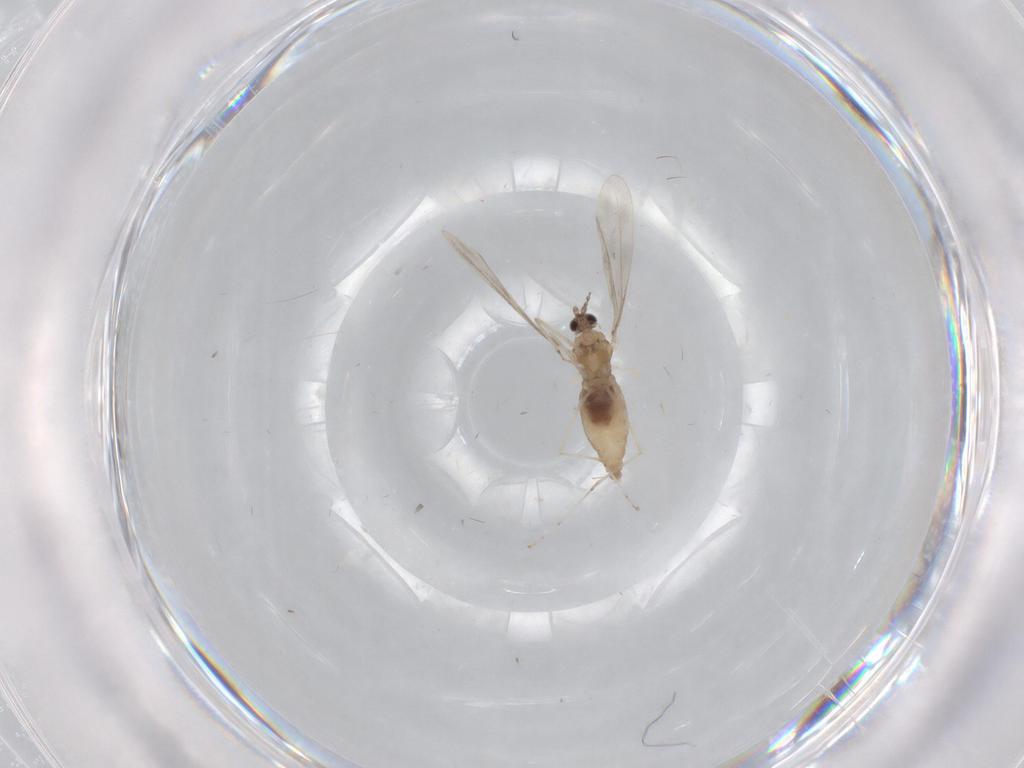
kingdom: Animalia
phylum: Arthropoda
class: Insecta
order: Diptera
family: Cecidomyiidae
